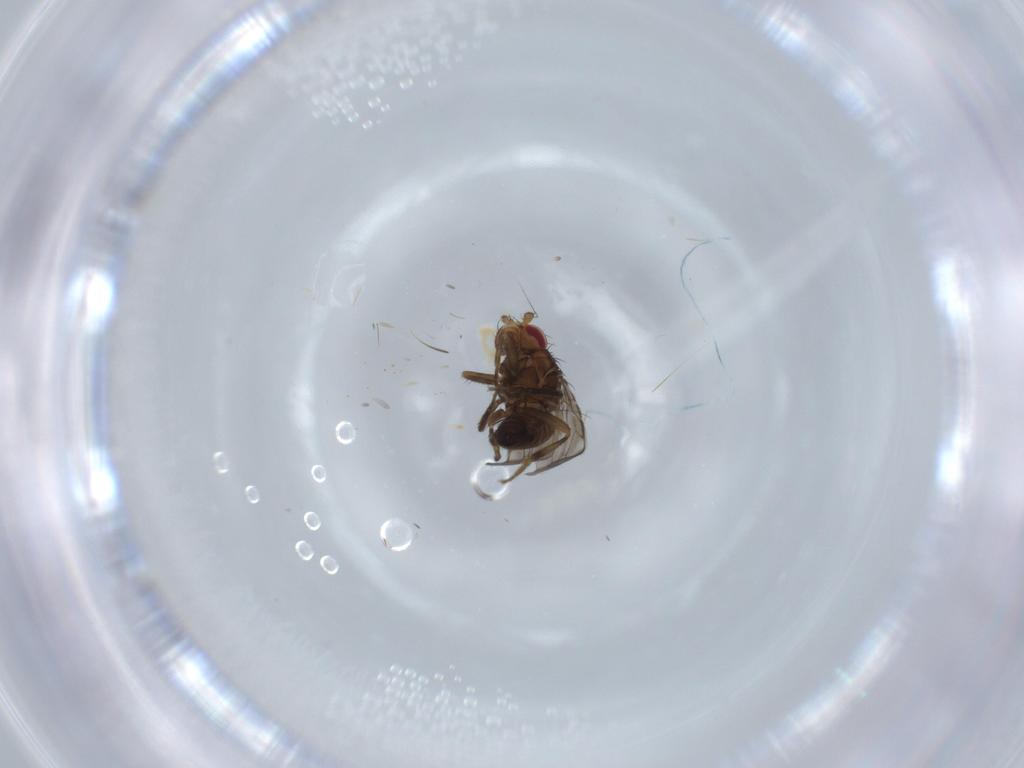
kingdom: Animalia
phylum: Arthropoda
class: Insecta
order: Diptera
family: Sphaeroceridae
